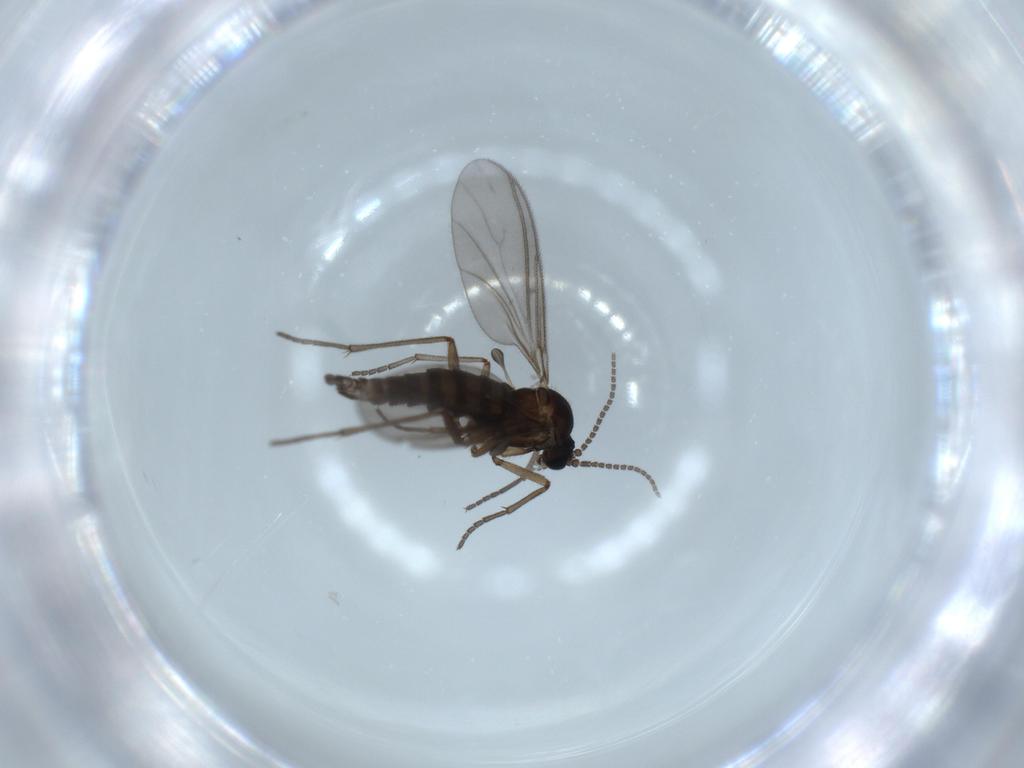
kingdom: Animalia
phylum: Arthropoda
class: Insecta
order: Diptera
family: Sciaridae
